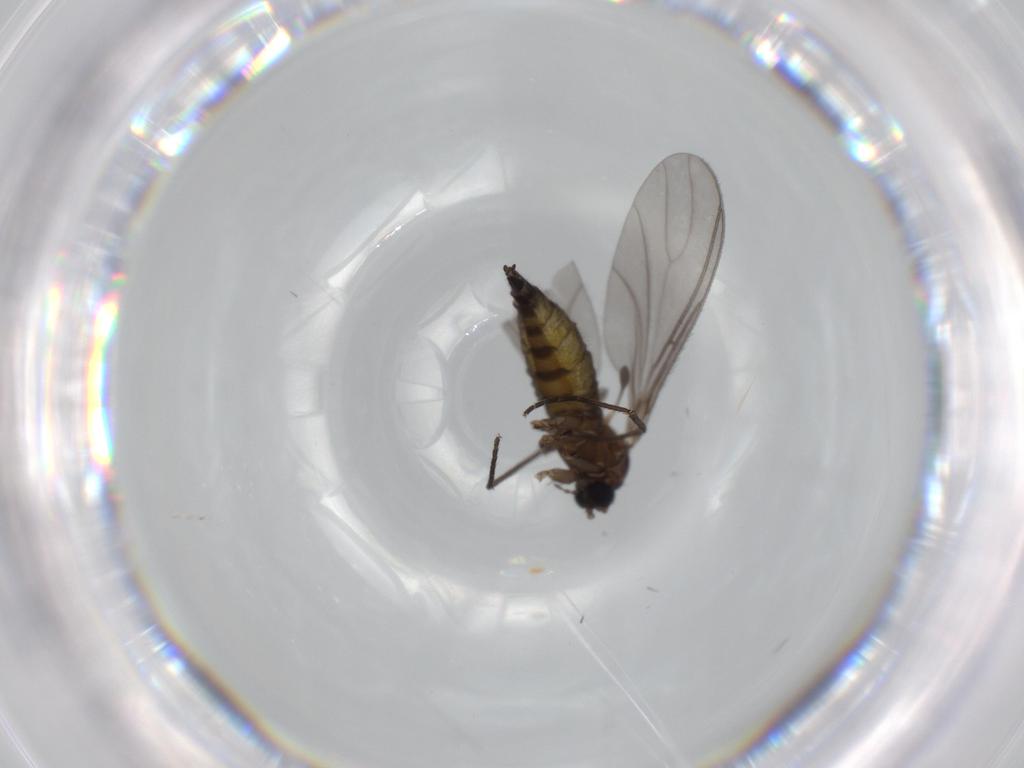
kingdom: Animalia
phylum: Arthropoda
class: Insecta
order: Diptera
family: Sciaridae
